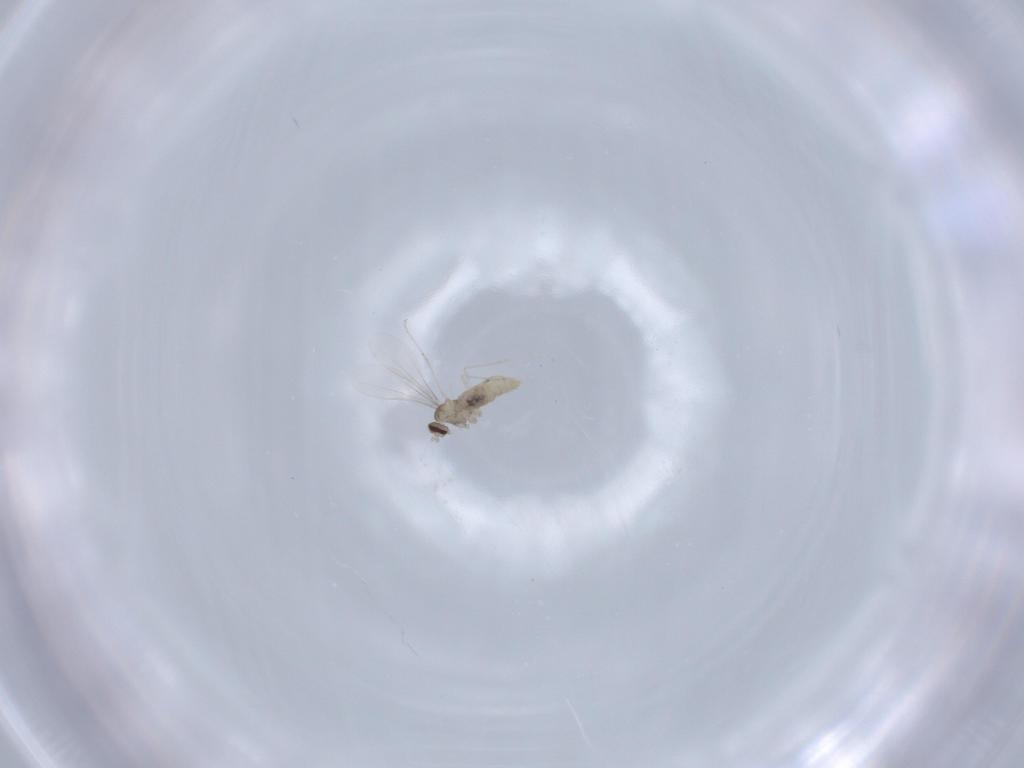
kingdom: Animalia
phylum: Arthropoda
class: Insecta
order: Diptera
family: Cecidomyiidae
